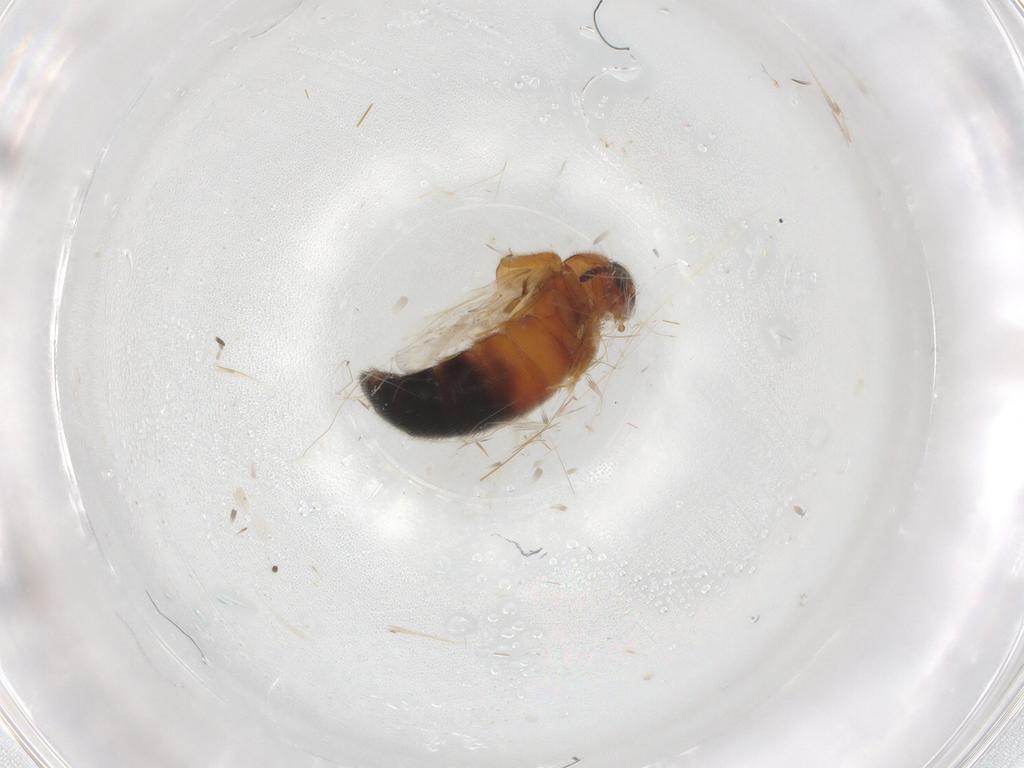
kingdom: Animalia
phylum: Arthropoda
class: Insecta
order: Coleoptera
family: Staphylinidae
